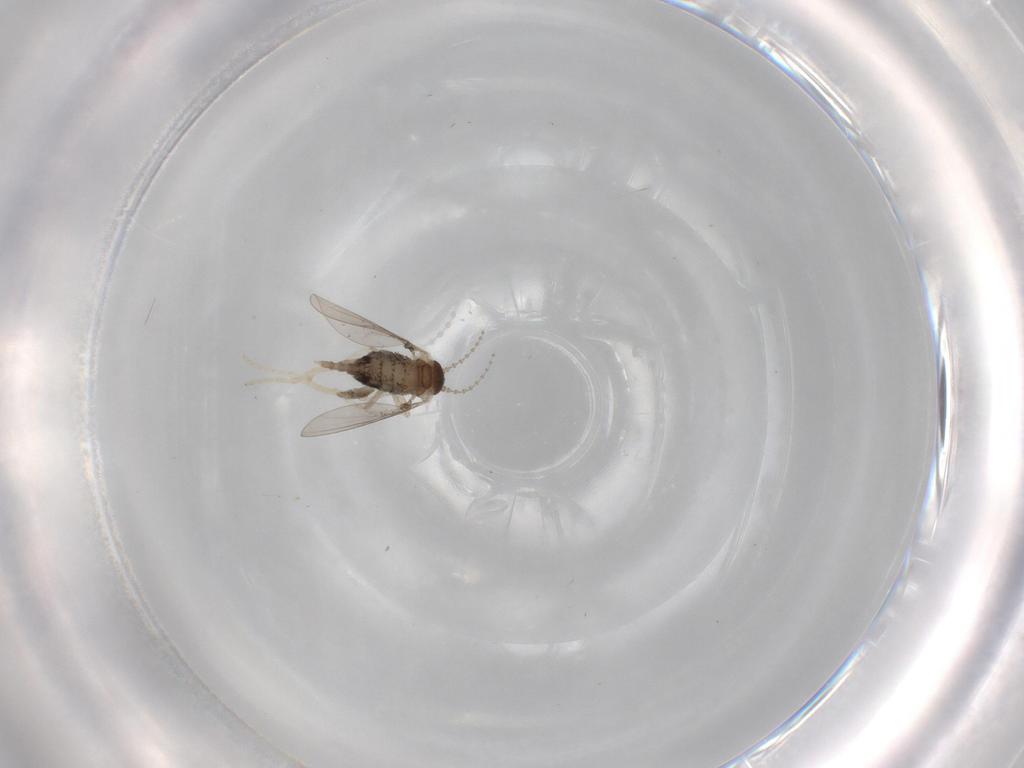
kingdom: Animalia
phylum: Arthropoda
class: Insecta
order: Diptera
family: Cecidomyiidae
